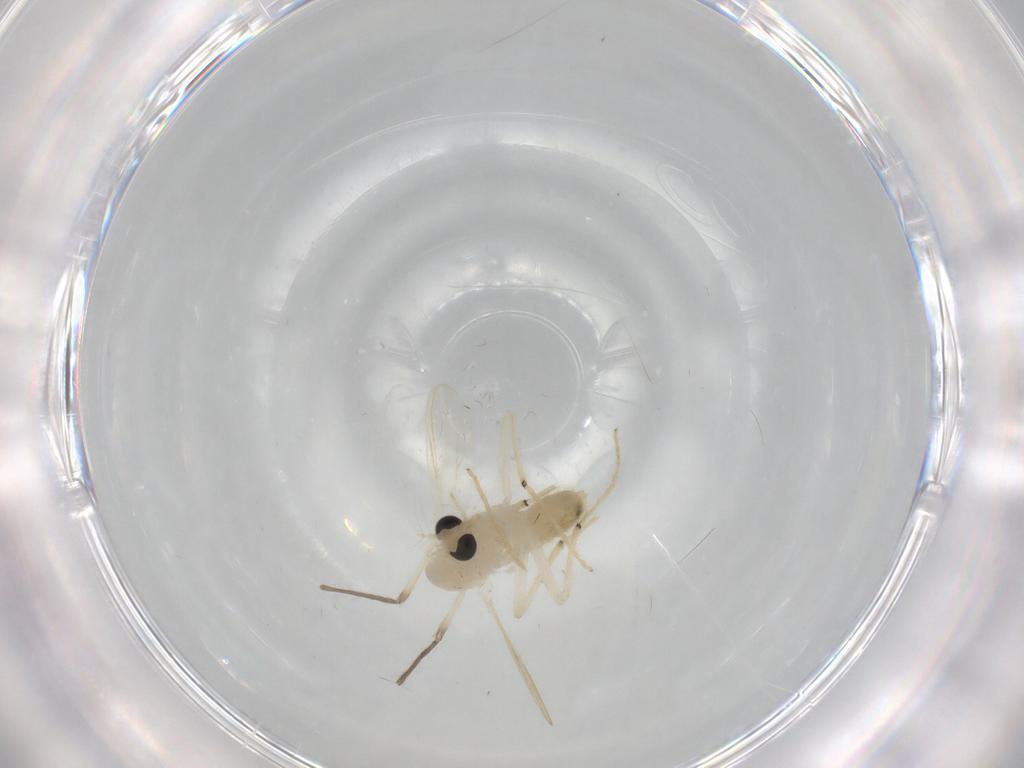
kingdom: Animalia
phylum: Arthropoda
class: Insecta
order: Diptera
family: Chironomidae
